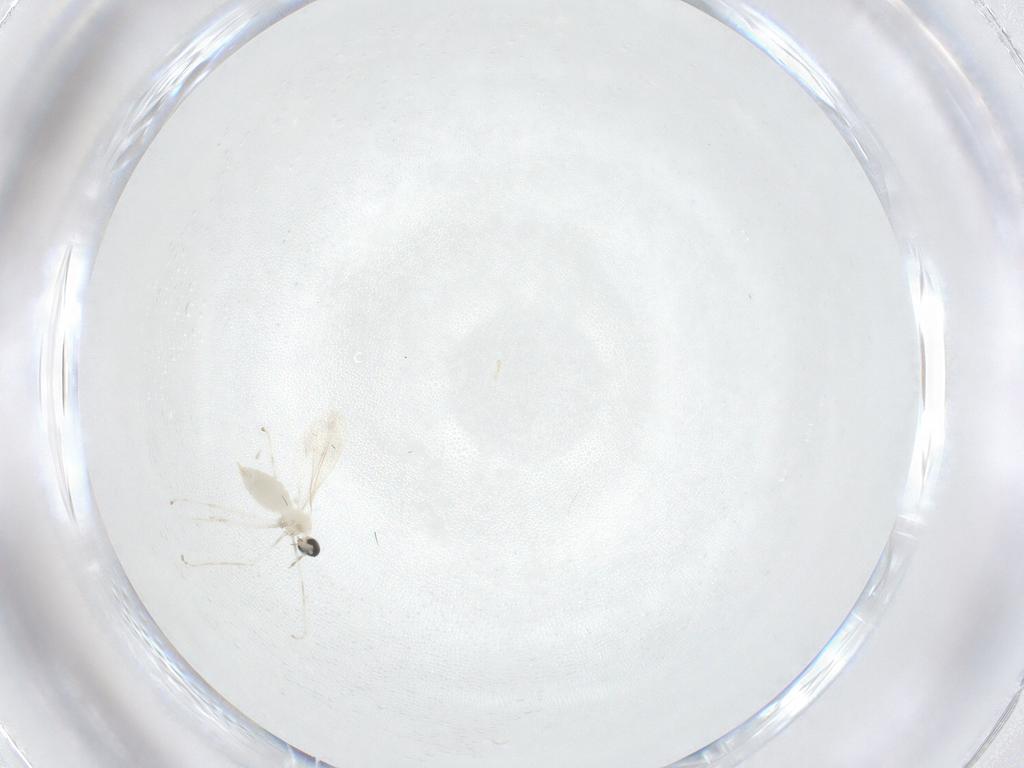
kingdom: Animalia
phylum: Arthropoda
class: Insecta
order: Diptera
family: Chironomidae
